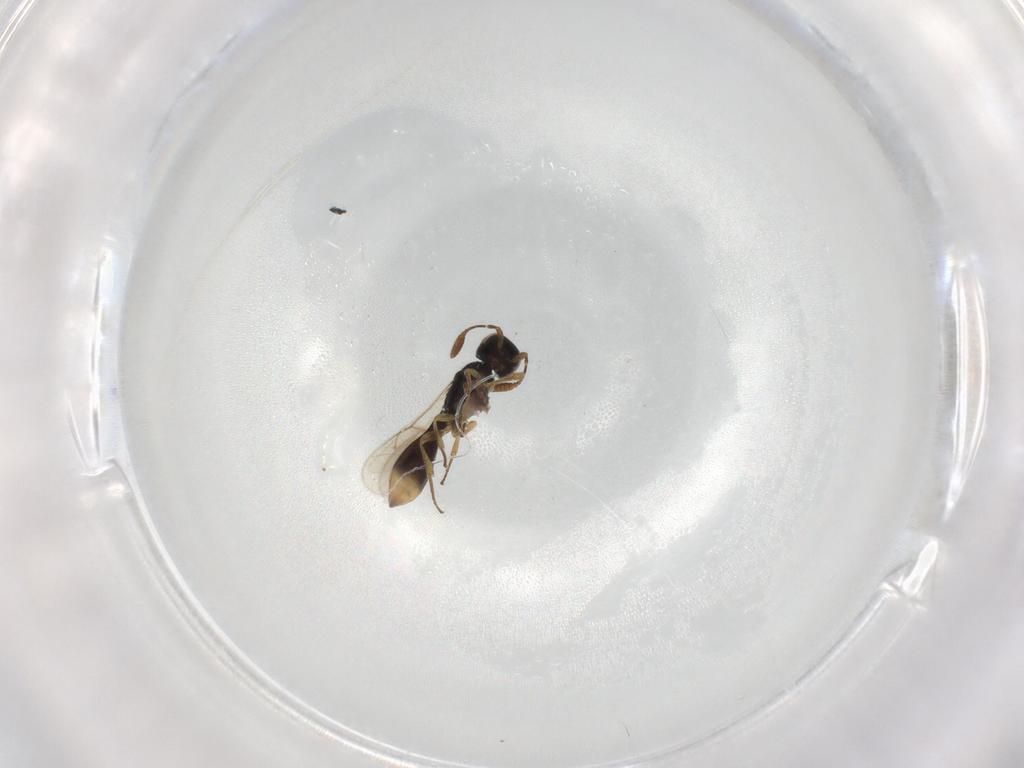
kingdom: Animalia
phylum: Arthropoda
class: Insecta
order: Hymenoptera
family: Scelionidae
